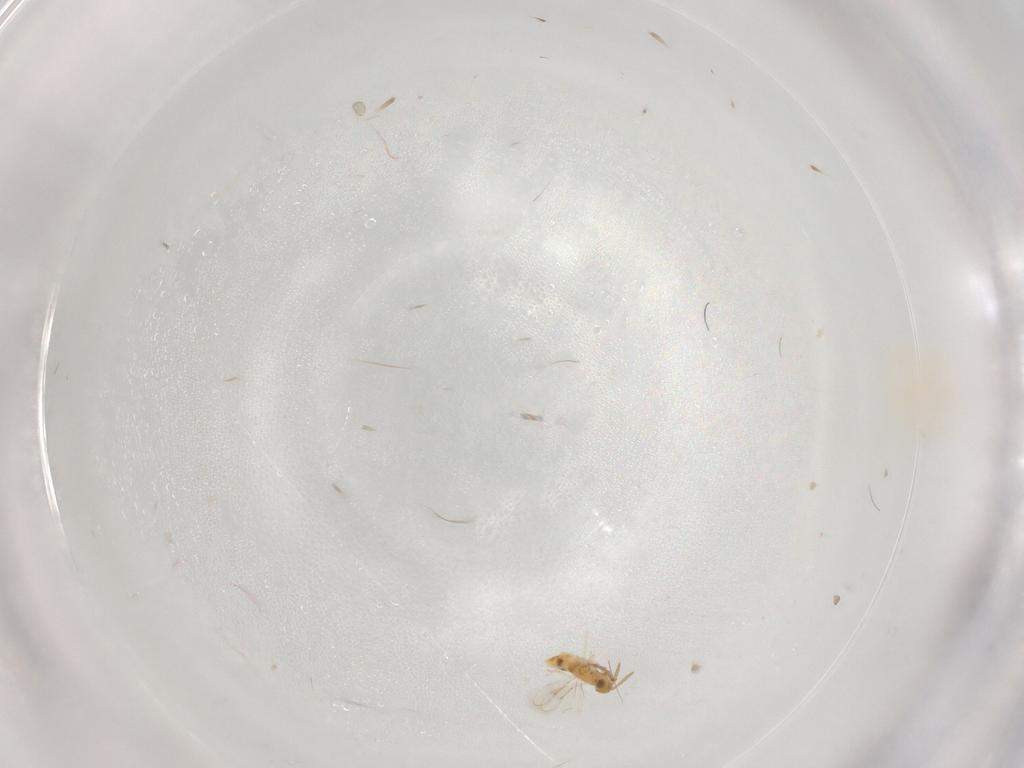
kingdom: Animalia
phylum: Arthropoda
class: Insecta
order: Hymenoptera
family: Aphelinidae
